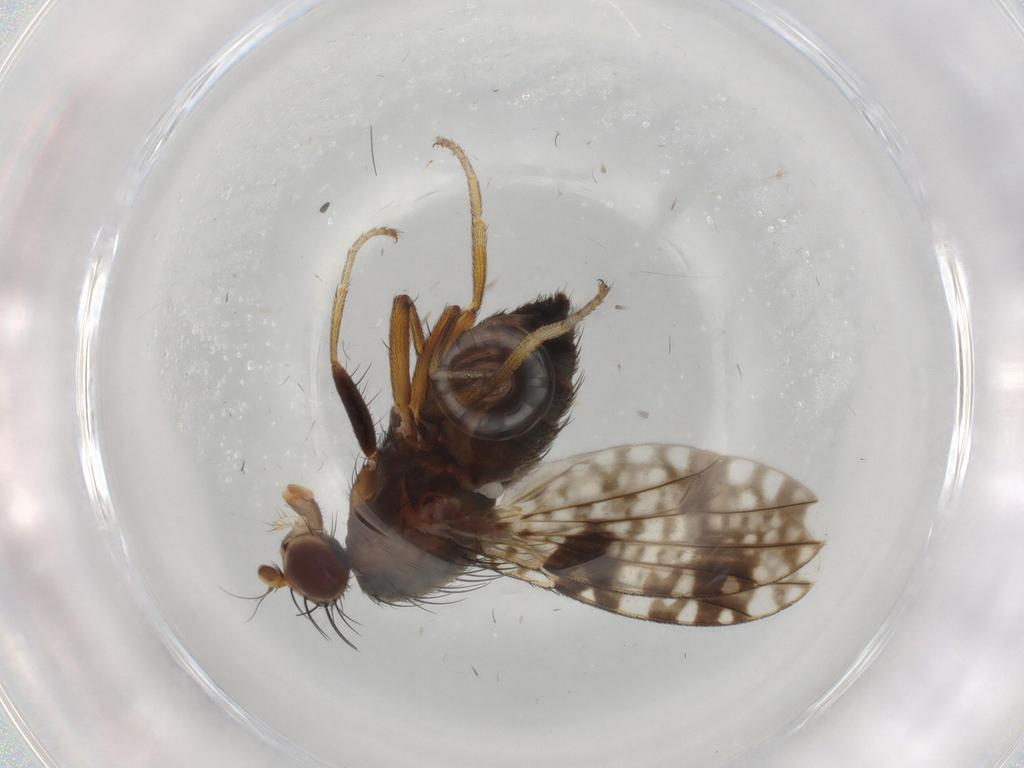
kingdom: Animalia
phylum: Arthropoda
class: Insecta
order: Diptera
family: Tephritidae
